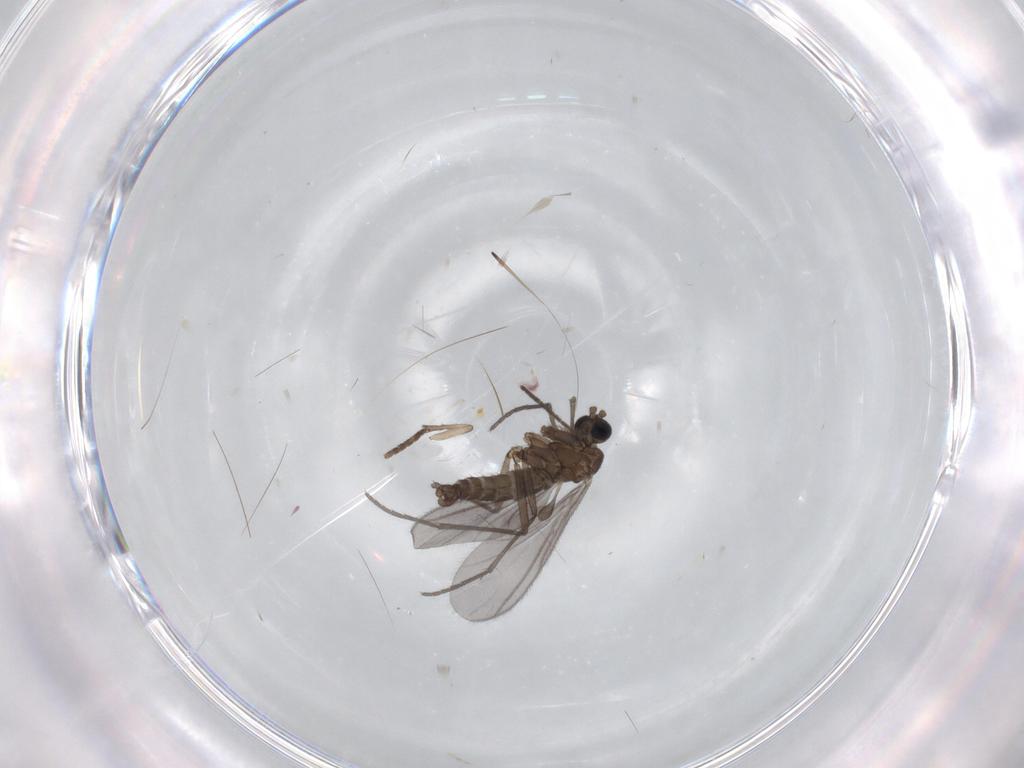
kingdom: Animalia
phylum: Arthropoda
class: Insecta
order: Diptera
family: Sciaridae
